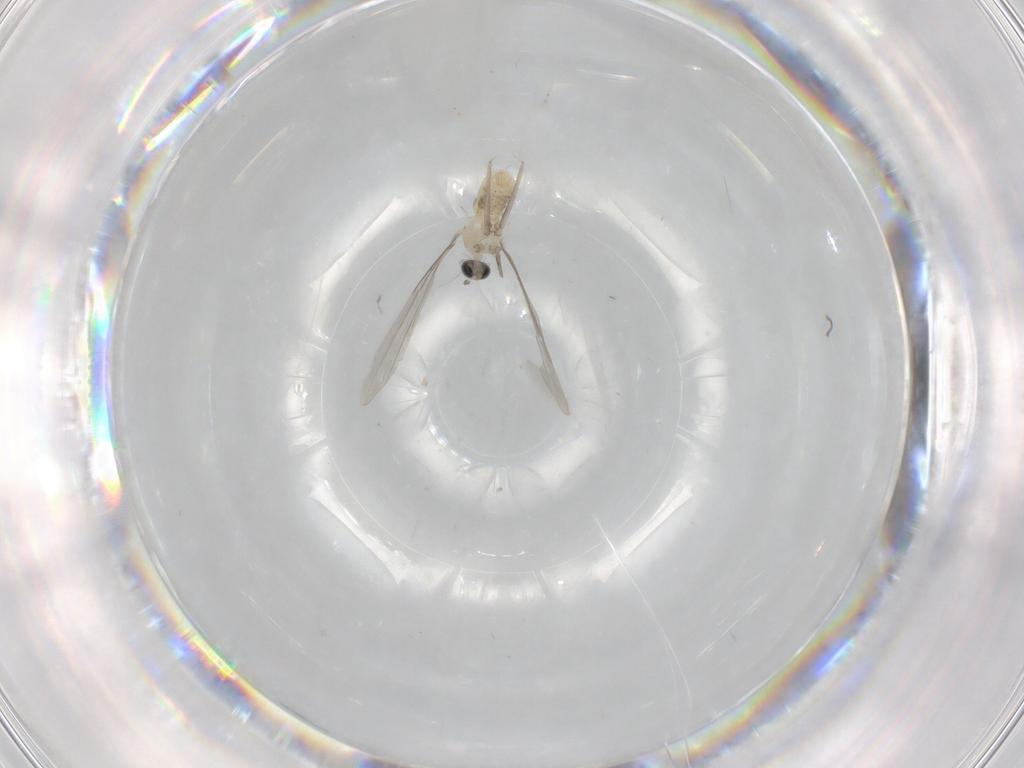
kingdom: Animalia
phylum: Arthropoda
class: Insecta
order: Diptera
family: Cecidomyiidae
